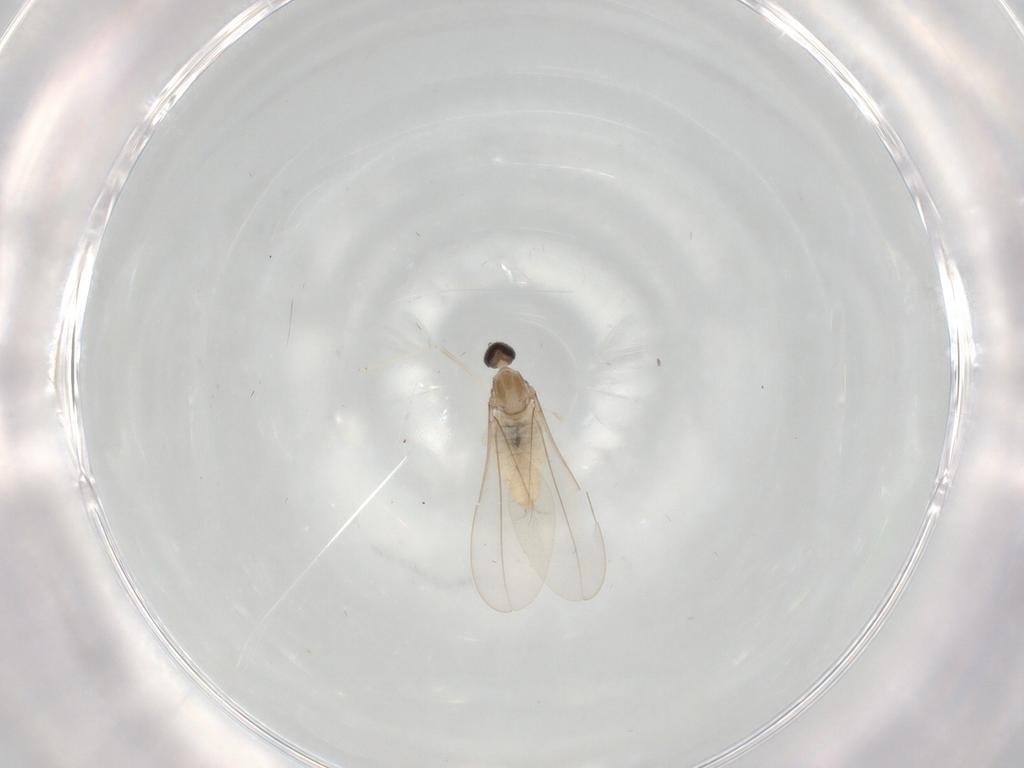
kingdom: Animalia
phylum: Arthropoda
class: Insecta
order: Diptera
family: Cecidomyiidae
